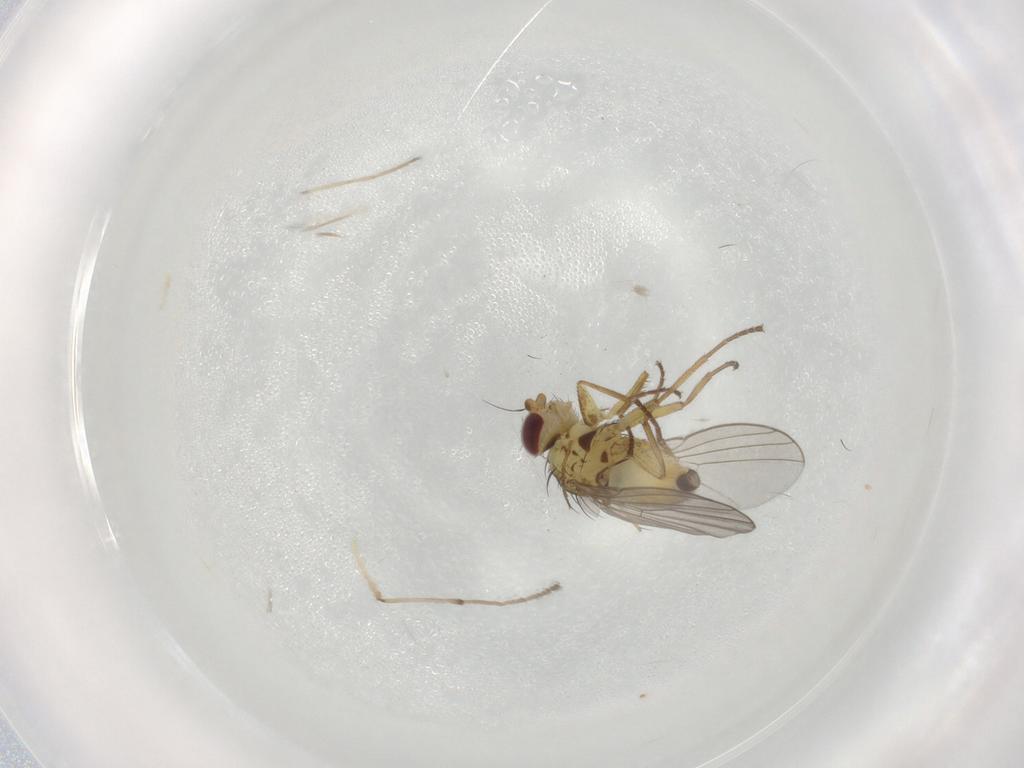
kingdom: Animalia
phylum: Arthropoda
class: Insecta
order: Diptera
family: Agromyzidae
